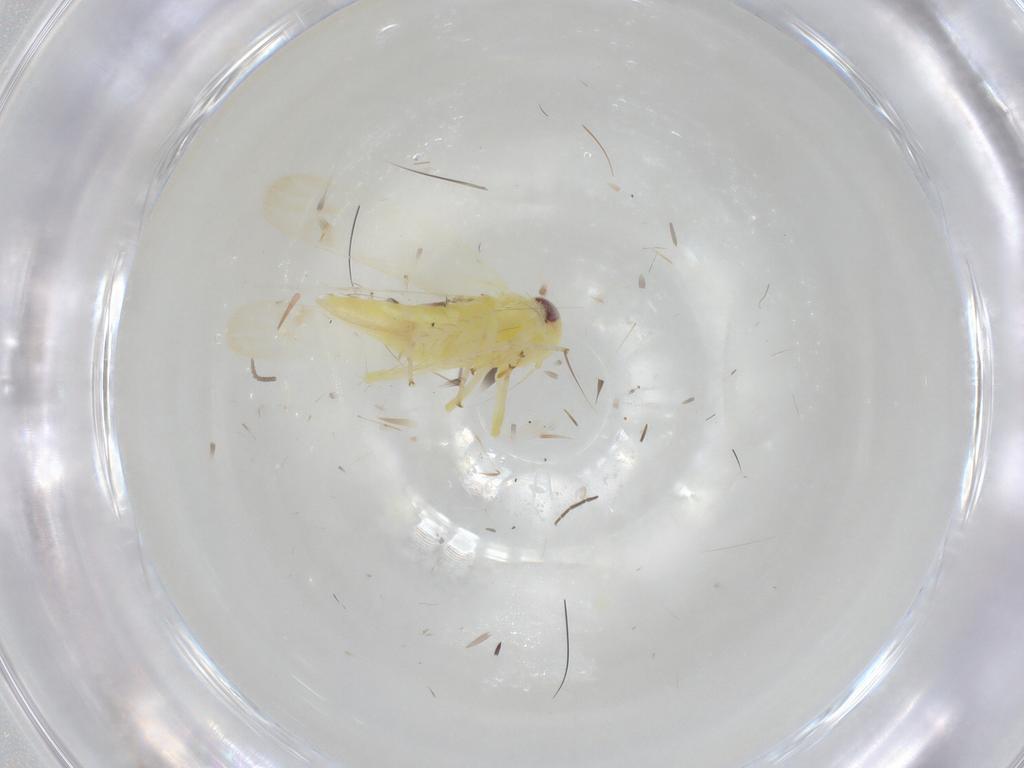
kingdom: Animalia
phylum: Arthropoda
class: Insecta
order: Hemiptera
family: Cicadellidae
